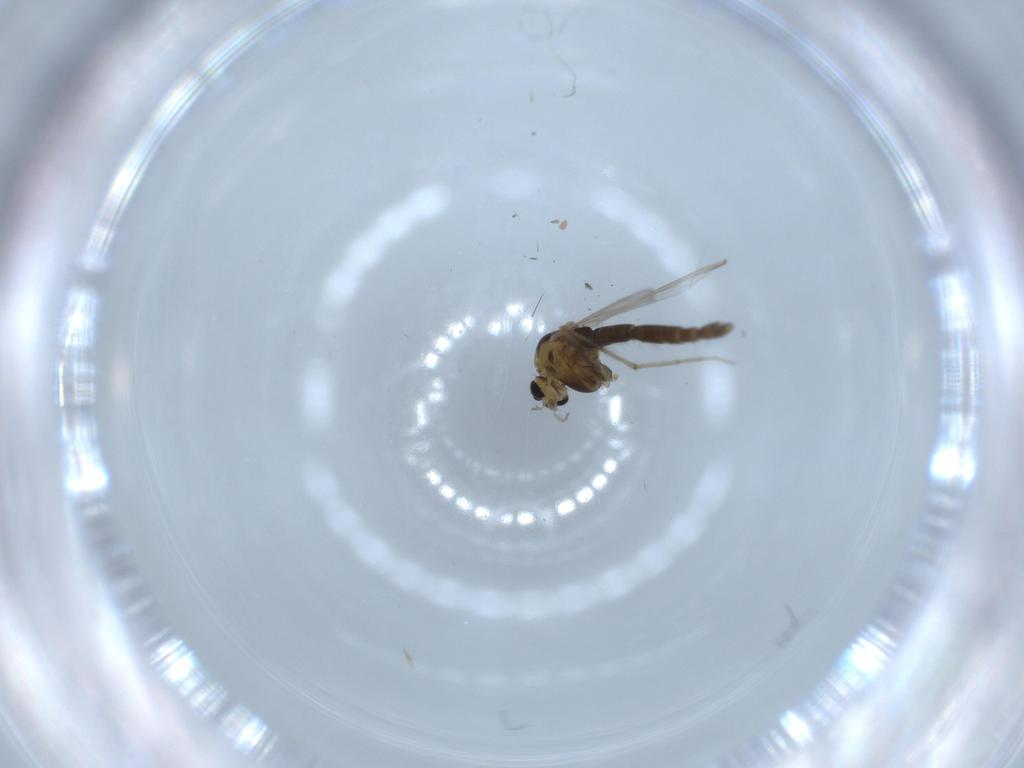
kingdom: Animalia
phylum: Arthropoda
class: Insecta
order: Diptera
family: Chironomidae
